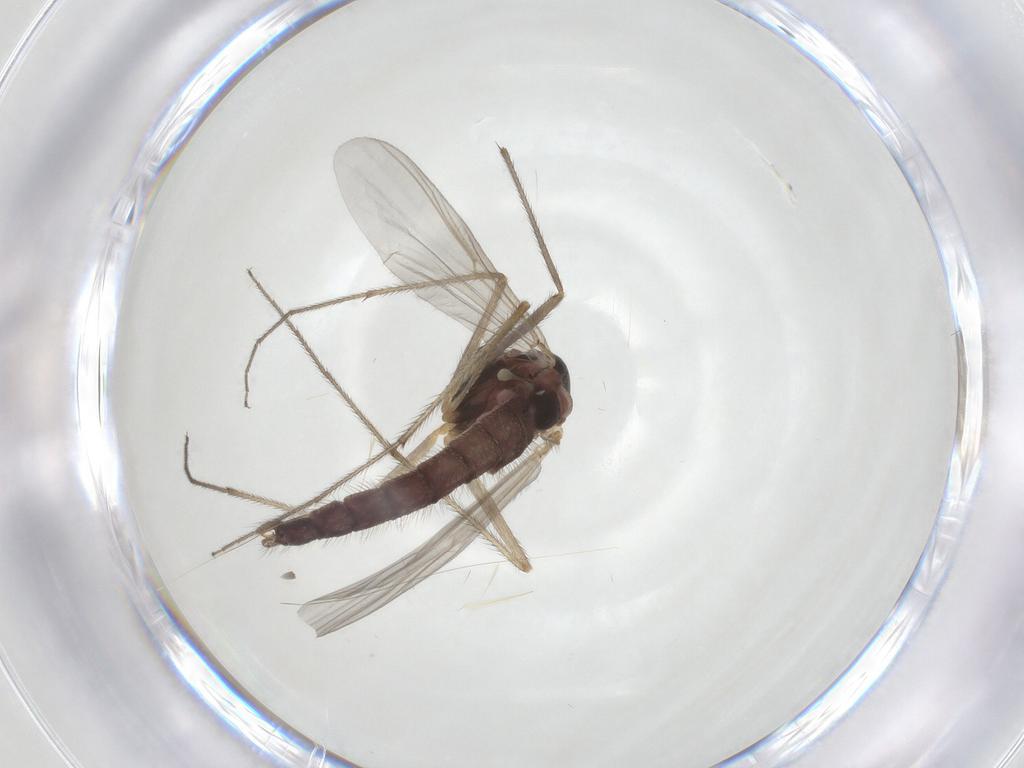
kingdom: Animalia
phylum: Arthropoda
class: Insecta
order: Diptera
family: Chironomidae
